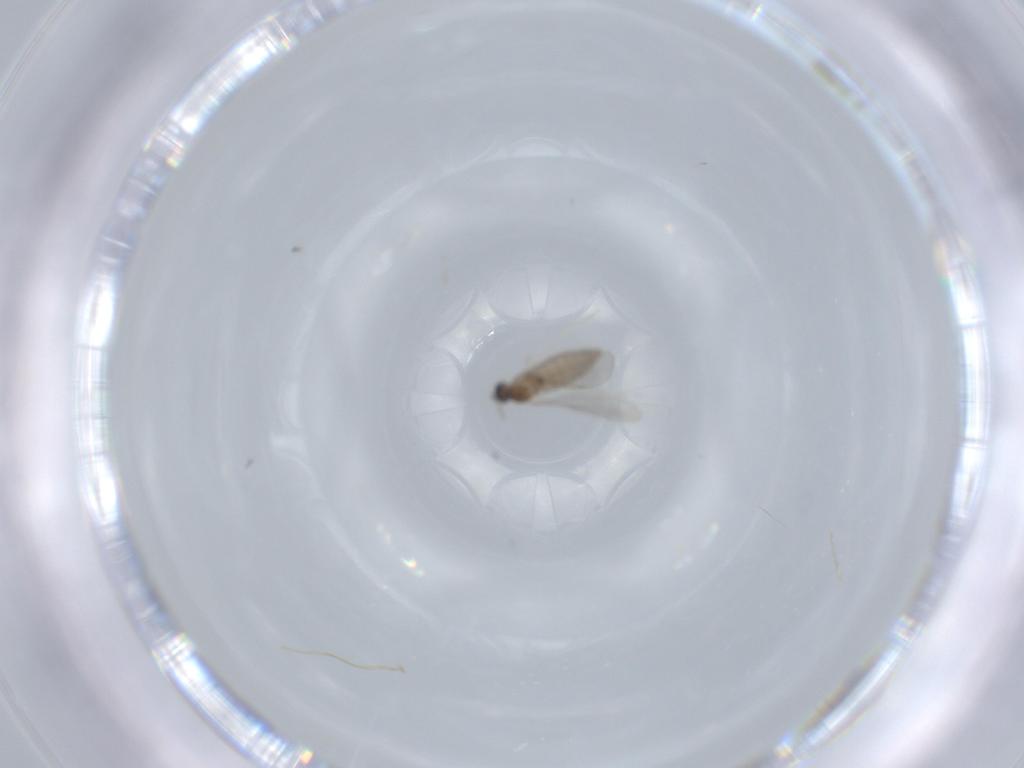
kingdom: Animalia
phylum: Arthropoda
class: Insecta
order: Diptera
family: Cecidomyiidae
